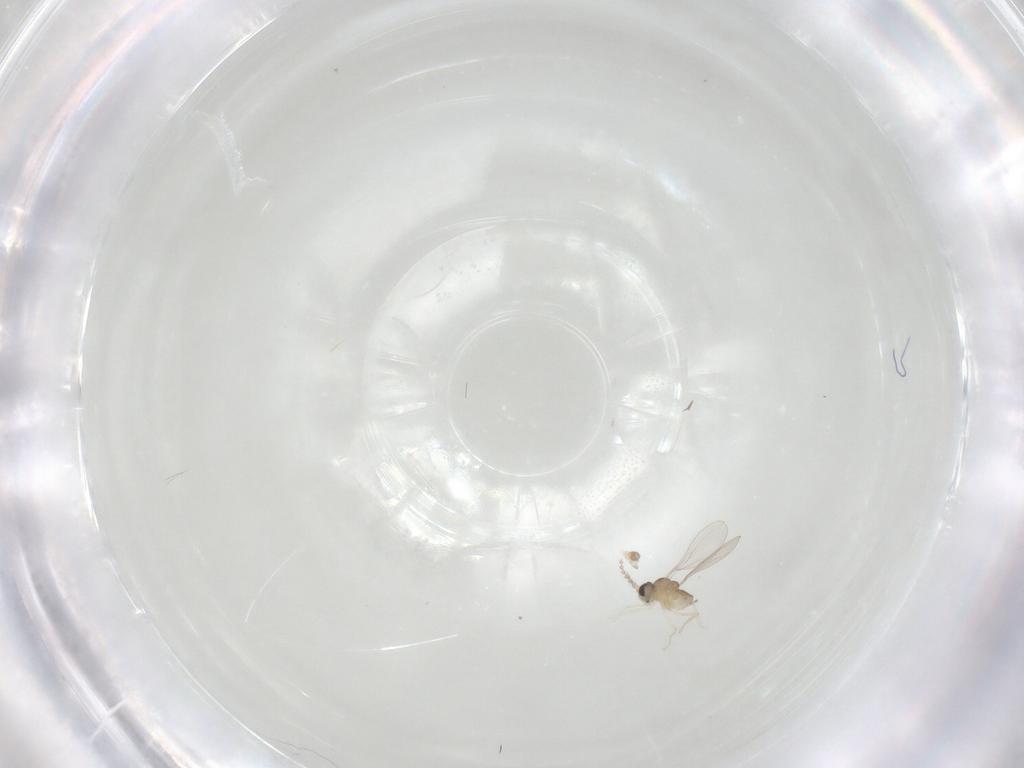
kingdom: Animalia
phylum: Arthropoda
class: Insecta
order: Diptera
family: Cecidomyiidae
